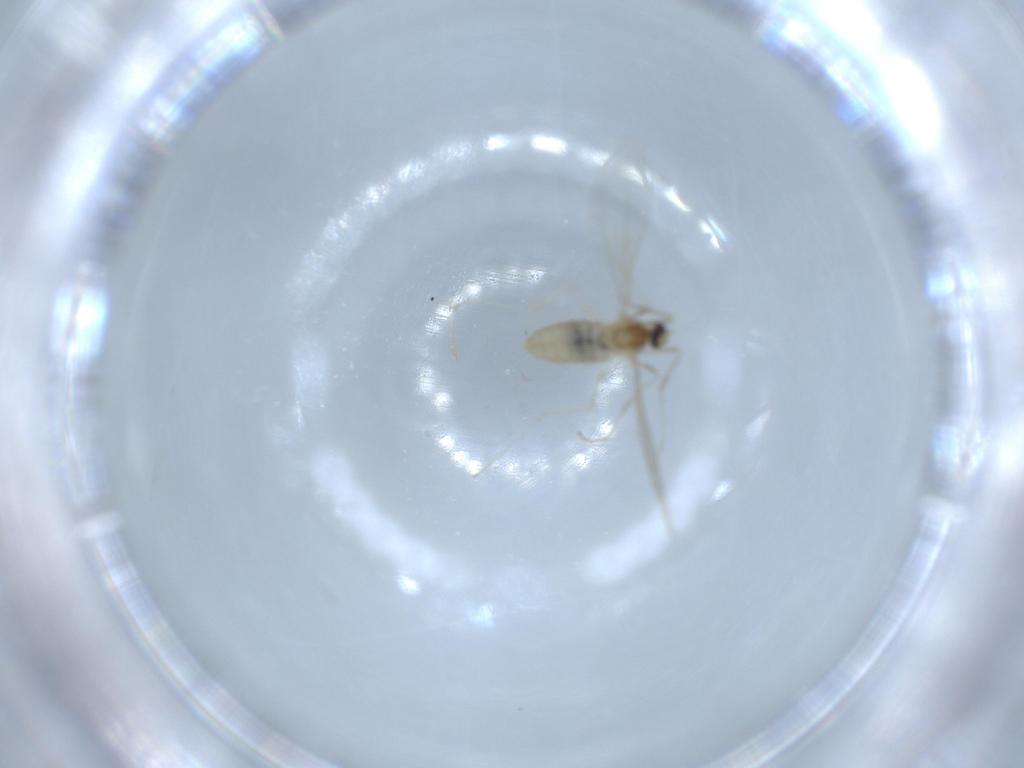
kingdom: Animalia
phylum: Arthropoda
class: Insecta
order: Diptera
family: Cecidomyiidae
